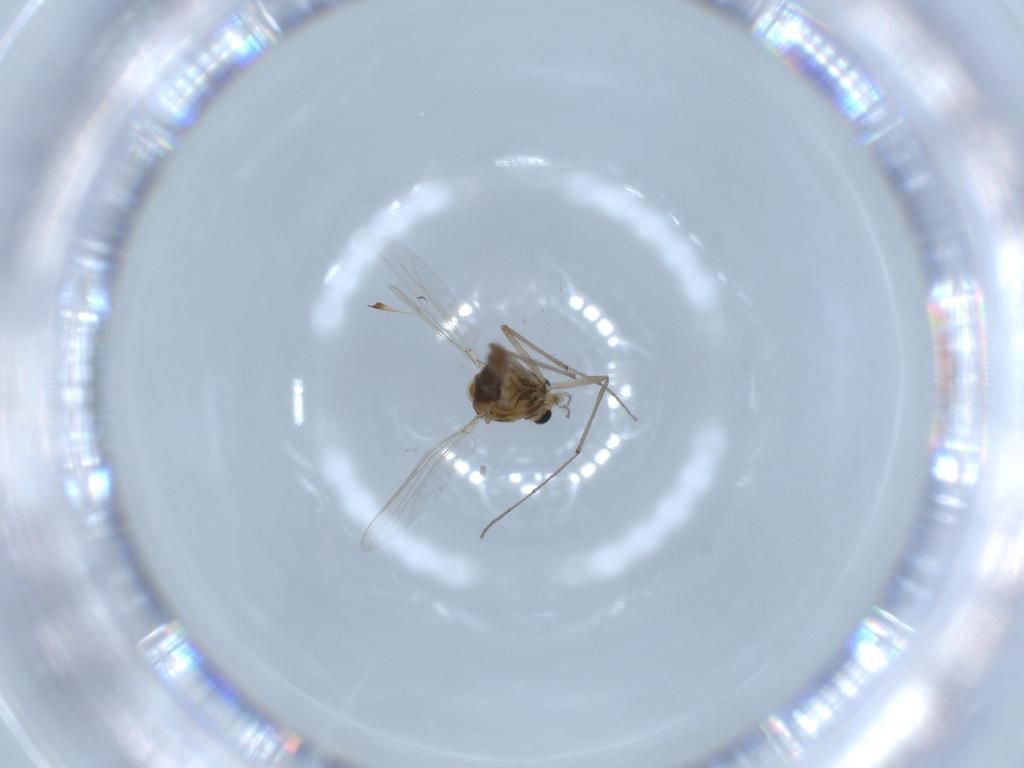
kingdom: Animalia
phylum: Arthropoda
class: Insecta
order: Diptera
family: Chironomidae
